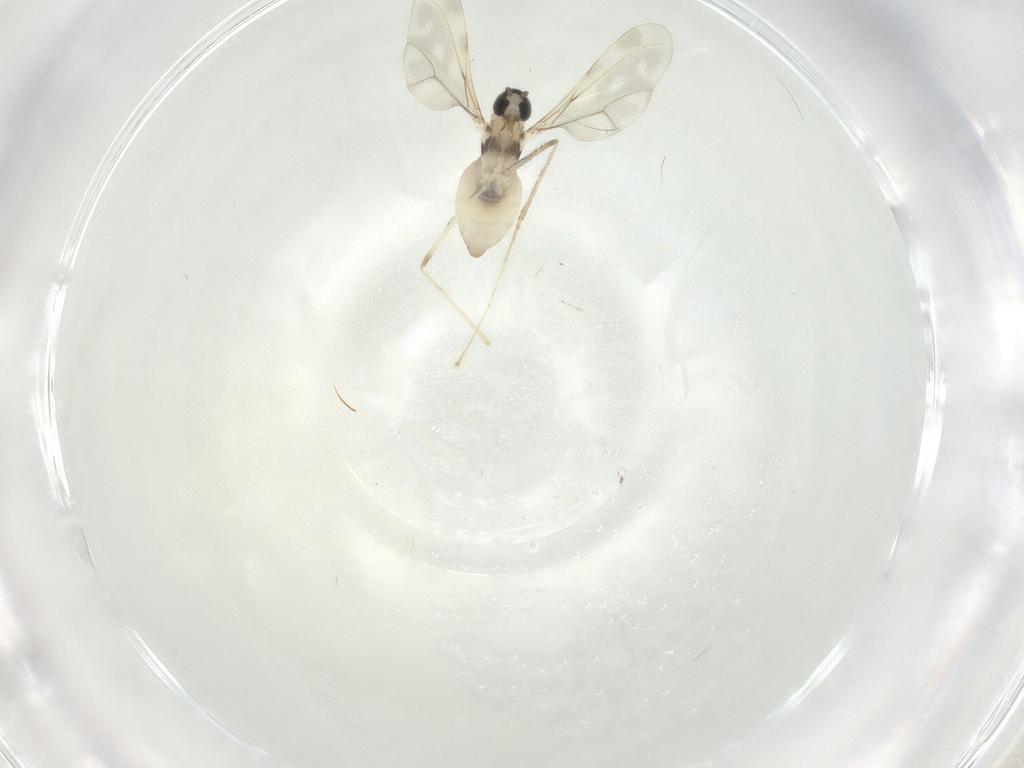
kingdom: Animalia
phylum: Arthropoda
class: Insecta
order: Diptera
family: Cecidomyiidae
